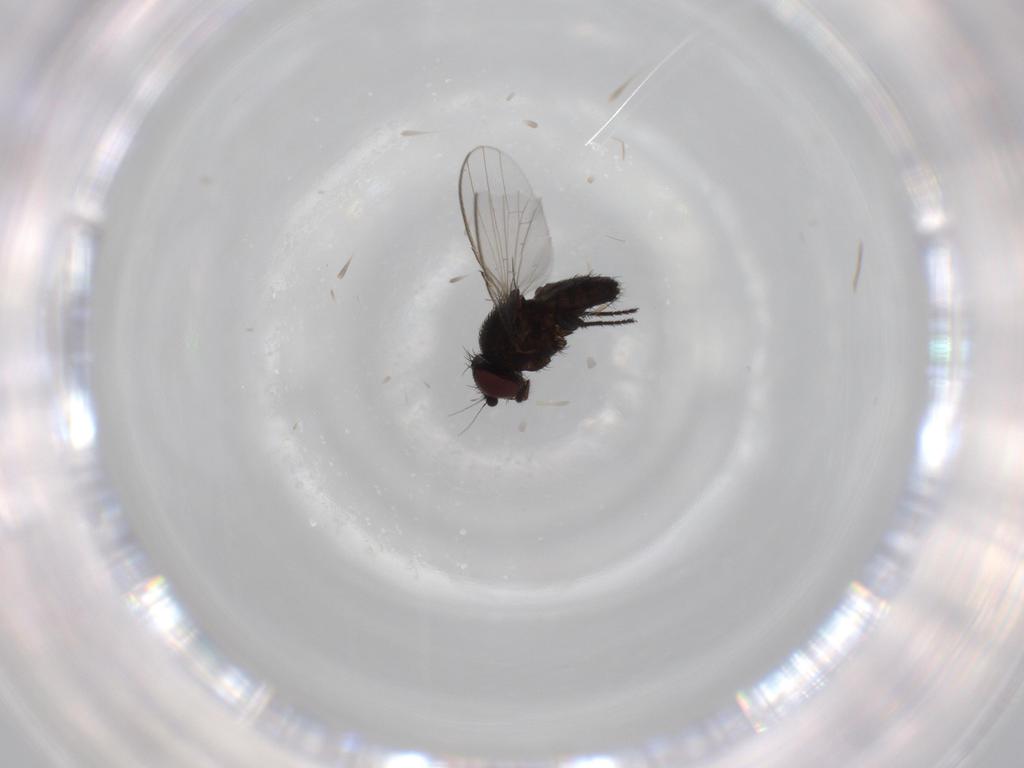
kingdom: Animalia
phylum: Arthropoda
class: Insecta
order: Diptera
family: Milichiidae
